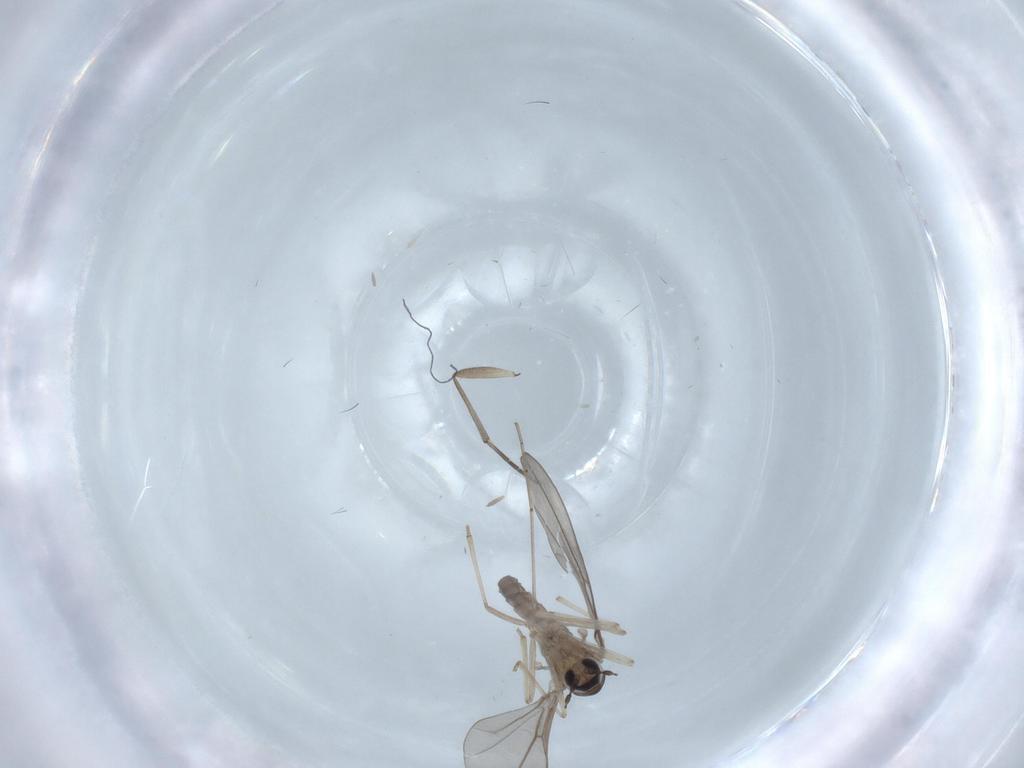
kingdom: Animalia
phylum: Arthropoda
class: Insecta
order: Diptera
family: Cecidomyiidae
